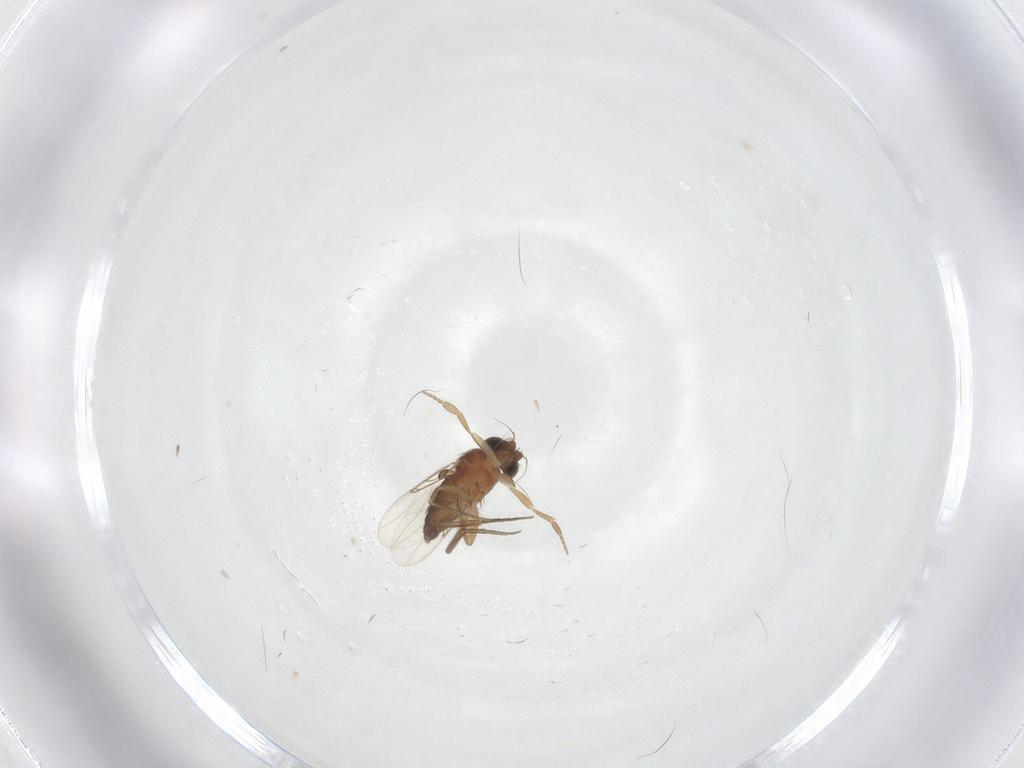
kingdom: Animalia
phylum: Arthropoda
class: Insecta
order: Diptera
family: Phoridae
